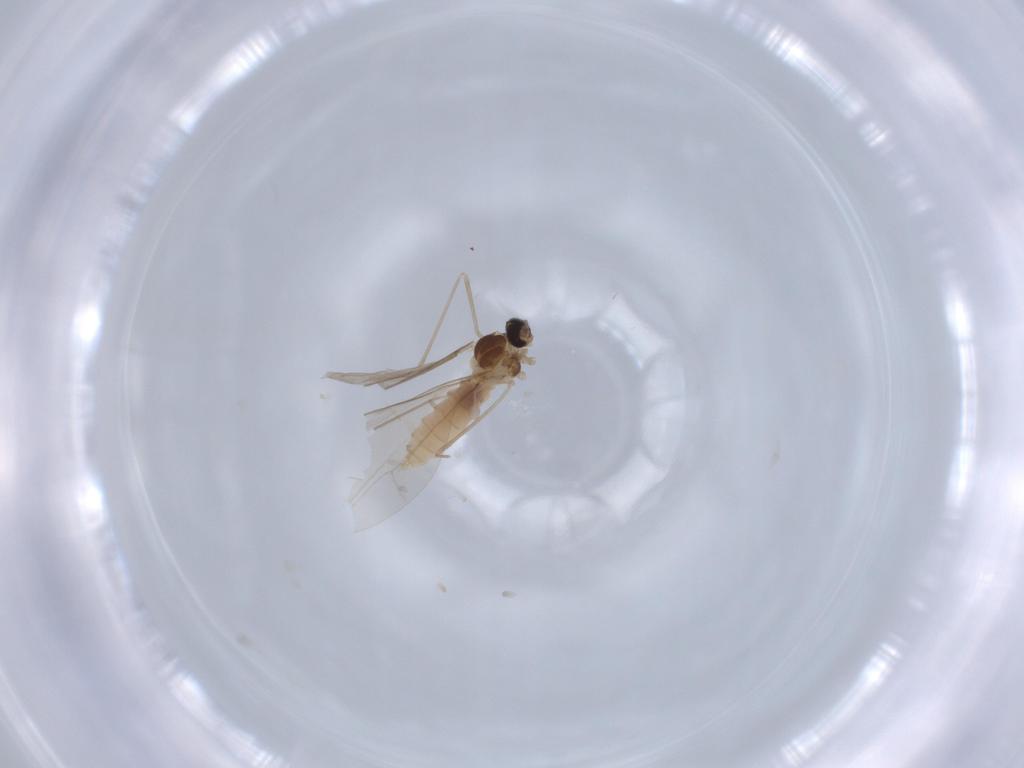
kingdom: Animalia
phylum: Arthropoda
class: Insecta
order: Diptera
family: Cecidomyiidae
